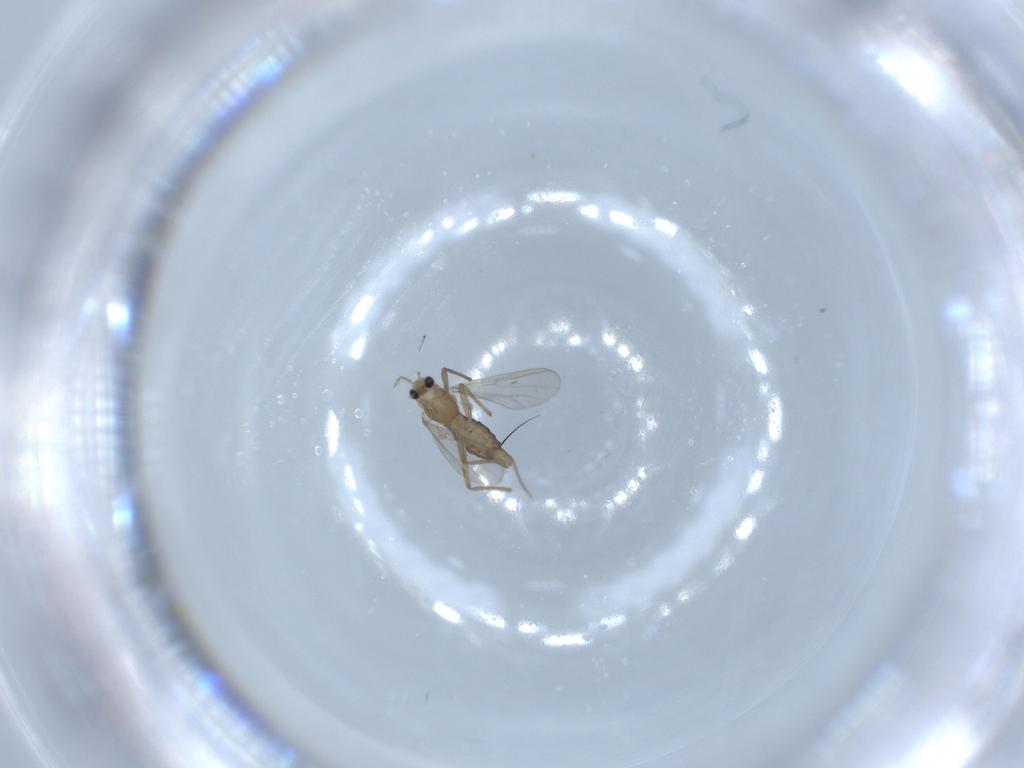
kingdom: Animalia
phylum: Arthropoda
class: Insecta
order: Diptera
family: Chironomidae
